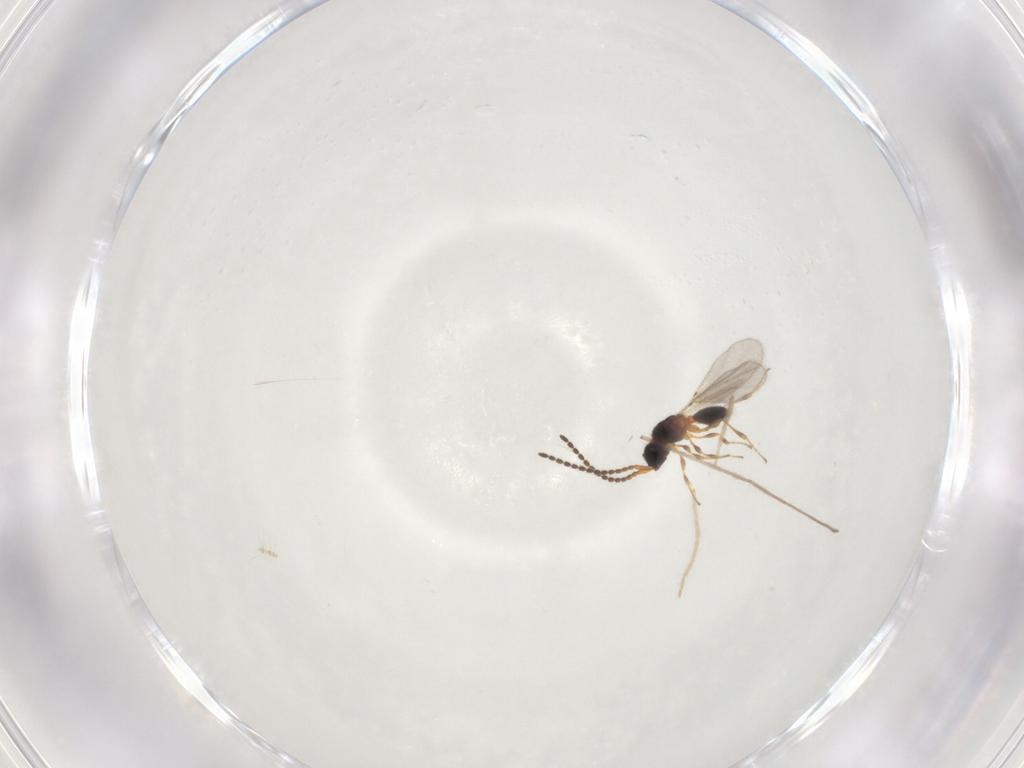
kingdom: Animalia
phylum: Arthropoda
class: Insecta
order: Hymenoptera
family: Diapriidae
